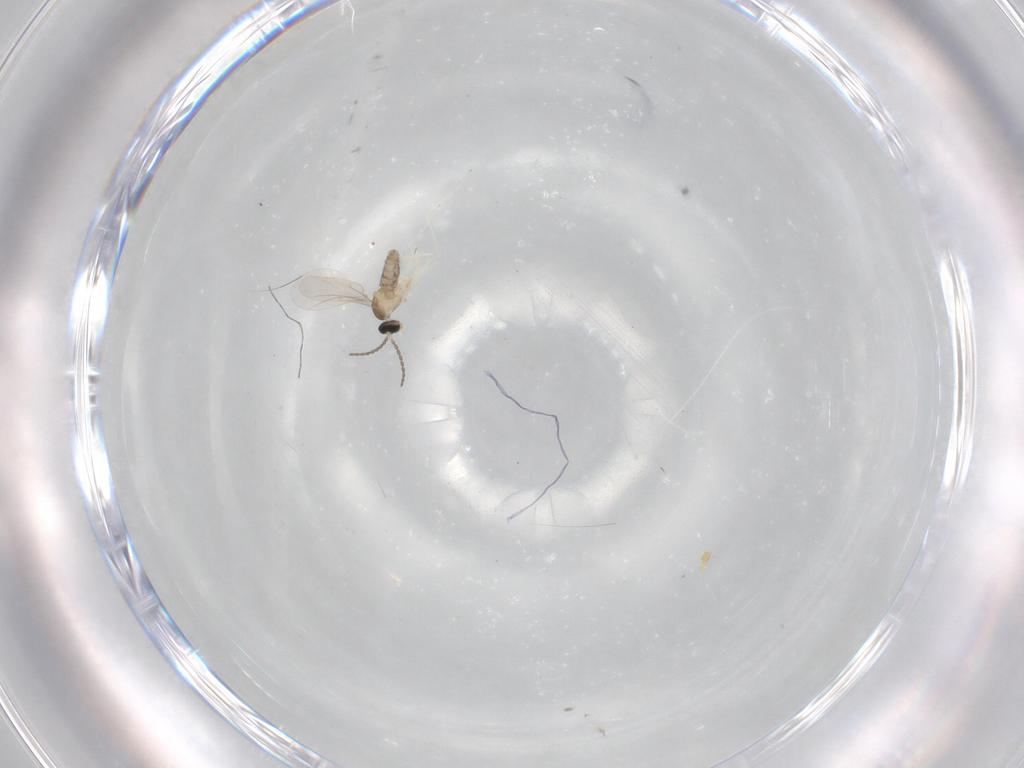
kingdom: Animalia
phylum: Arthropoda
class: Insecta
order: Diptera
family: Cecidomyiidae
